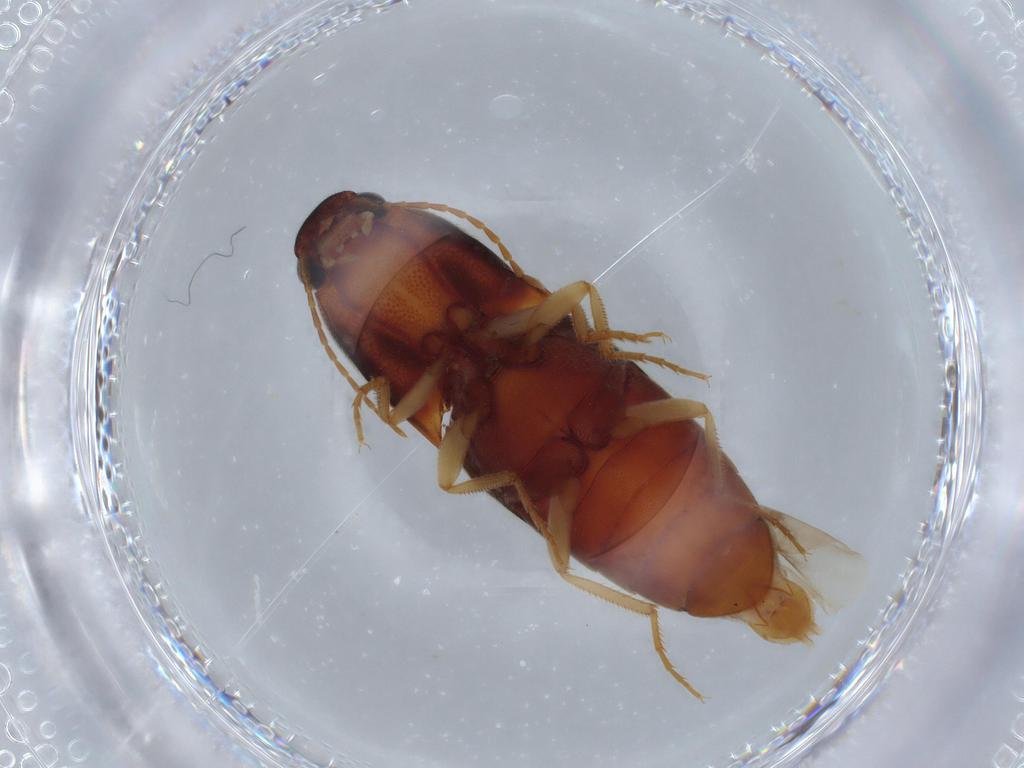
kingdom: Animalia
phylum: Arthropoda
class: Insecta
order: Coleoptera
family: Elateridae
